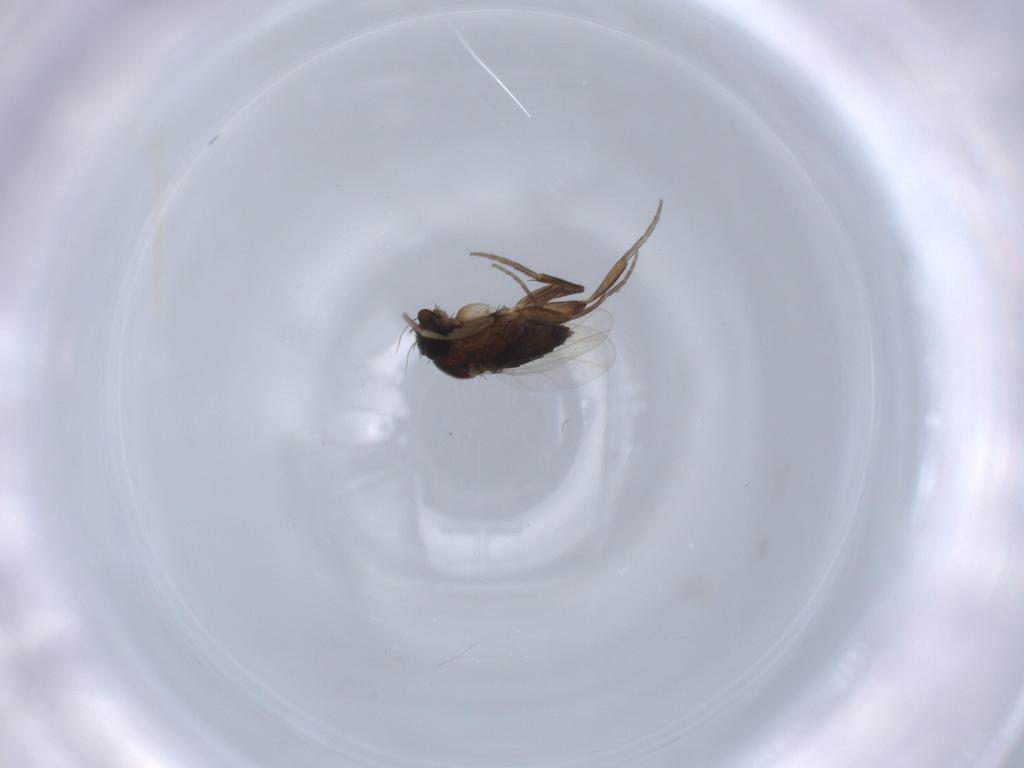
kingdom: Animalia
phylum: Arthropoda
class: Insecta
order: Diptera
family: Phoridae
